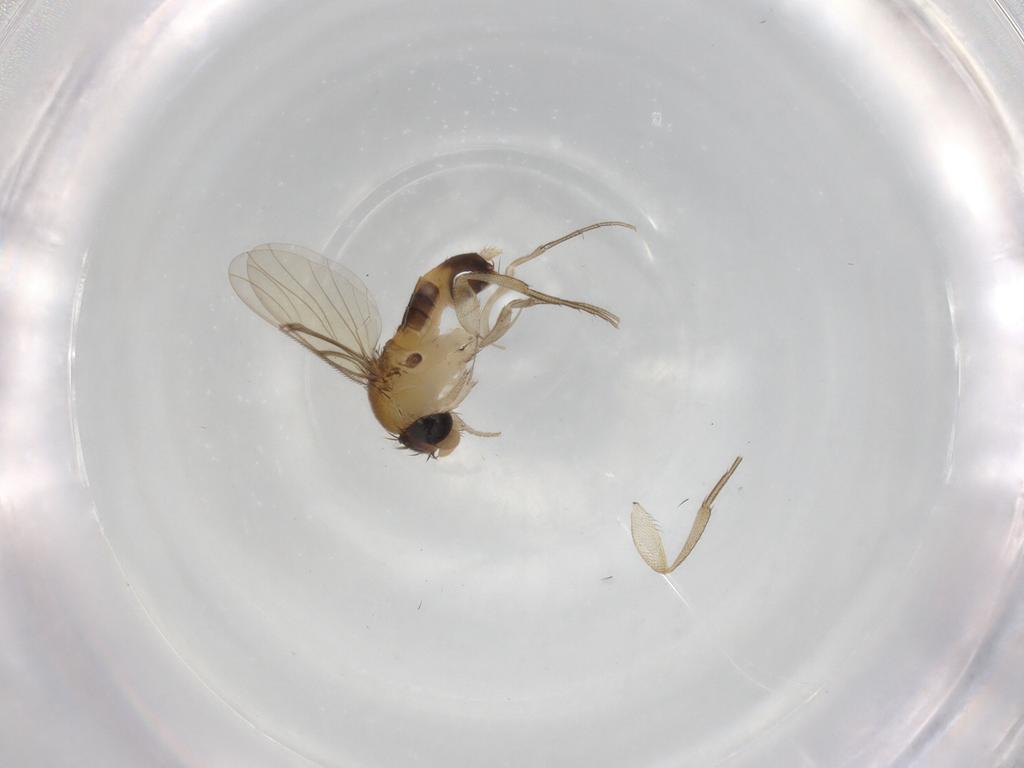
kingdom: Animalia
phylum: Arthropoda
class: Insecta
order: Diptera
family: Phoridae
